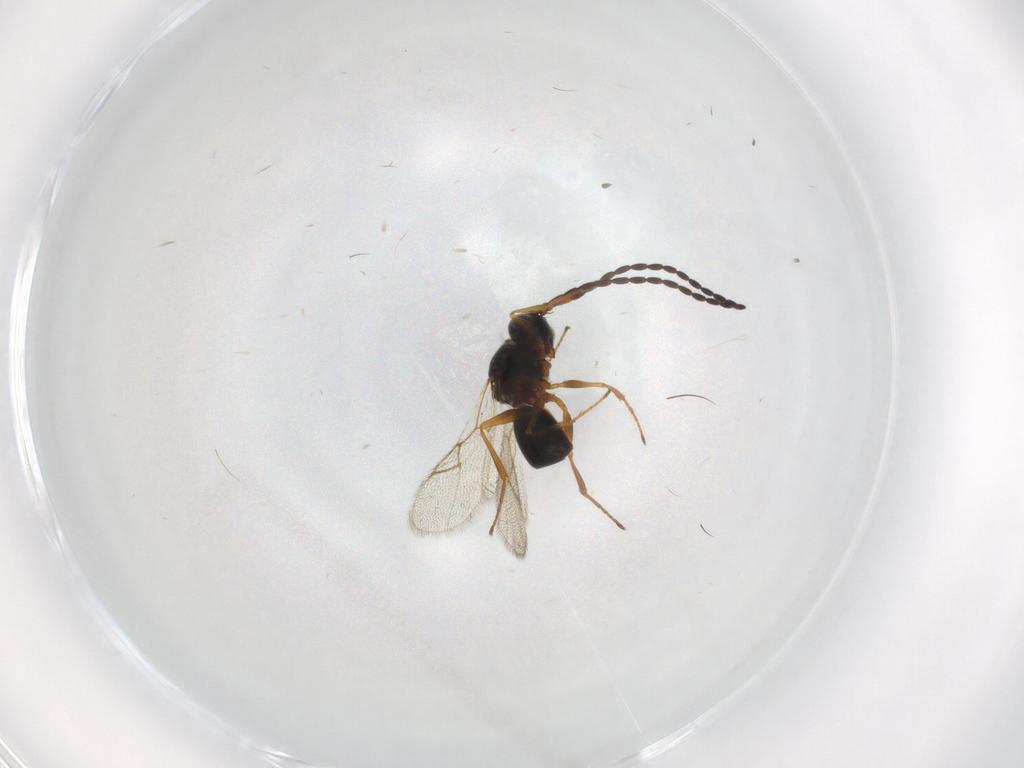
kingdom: Animalia
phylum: Arthropoda
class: Insecta
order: Hymenoptera
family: Figitidae
